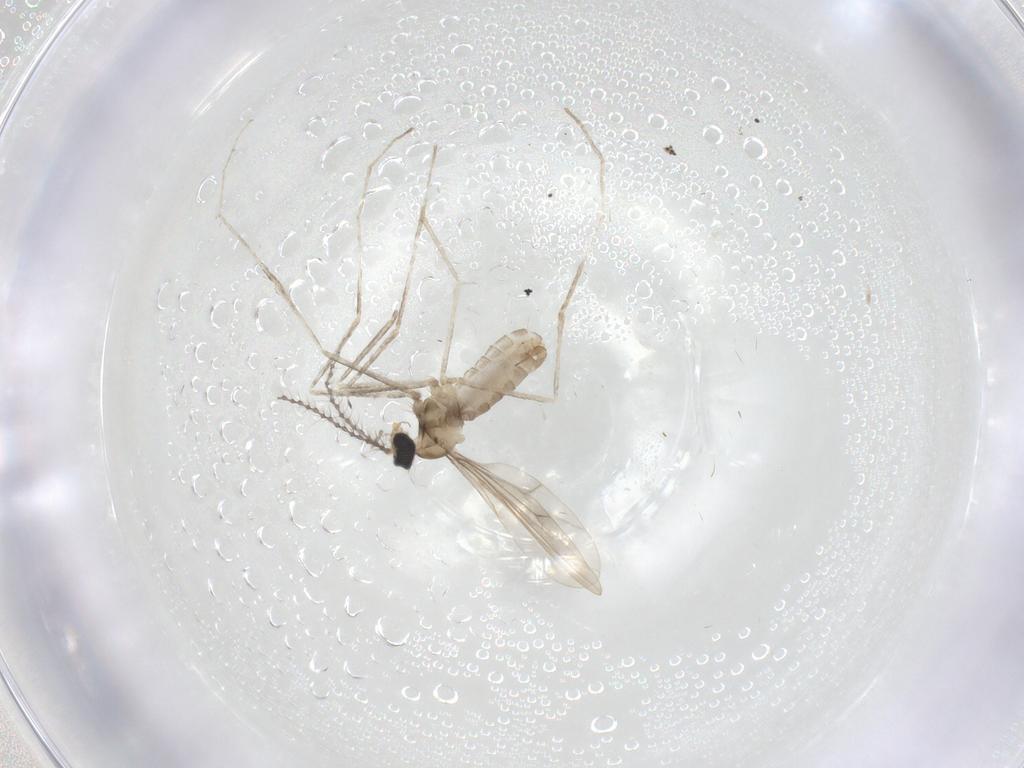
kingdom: Animalia
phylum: Arthropoda
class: Insecta
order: Diptera
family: Cecidomyiidae
